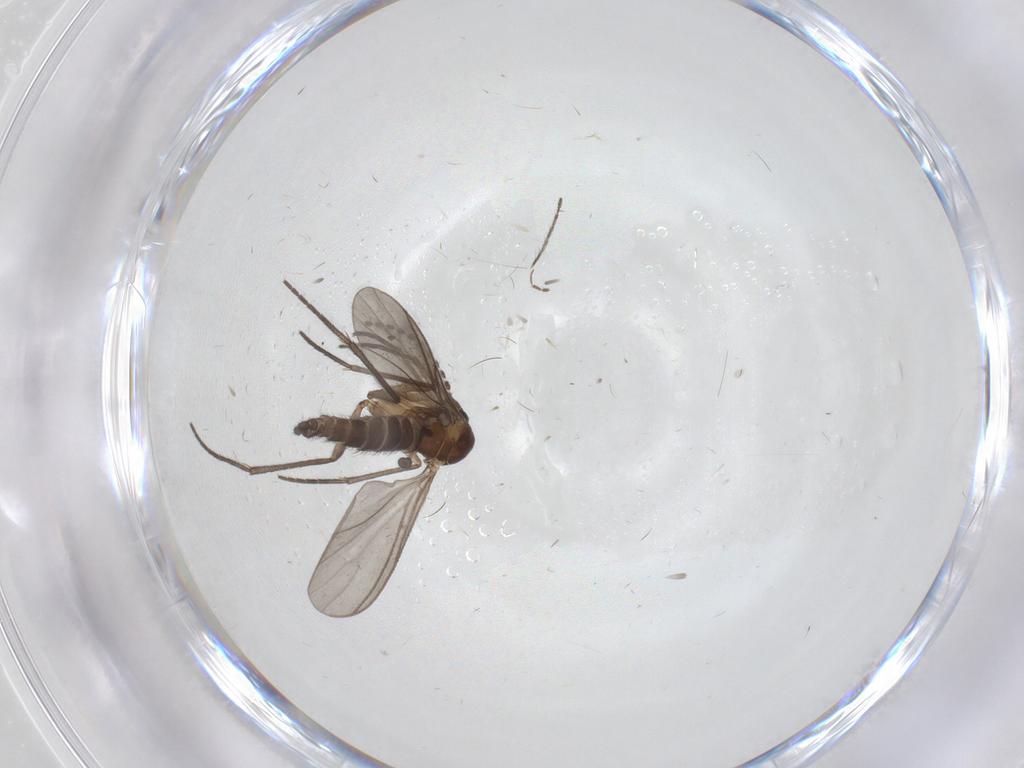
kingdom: Animalia
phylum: Arthropoda
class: Insecta
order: Diptera
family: Sciaridae
